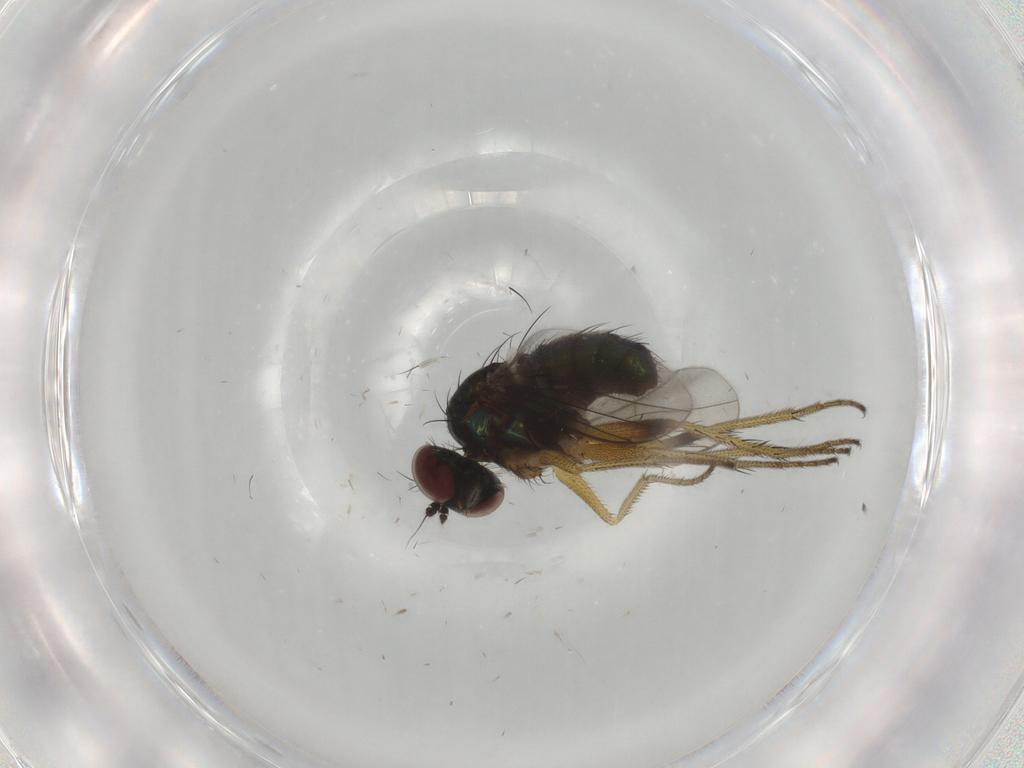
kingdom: Animalia
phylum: Arthropoda
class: Insecta
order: Diptera
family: Dolichopodidae
